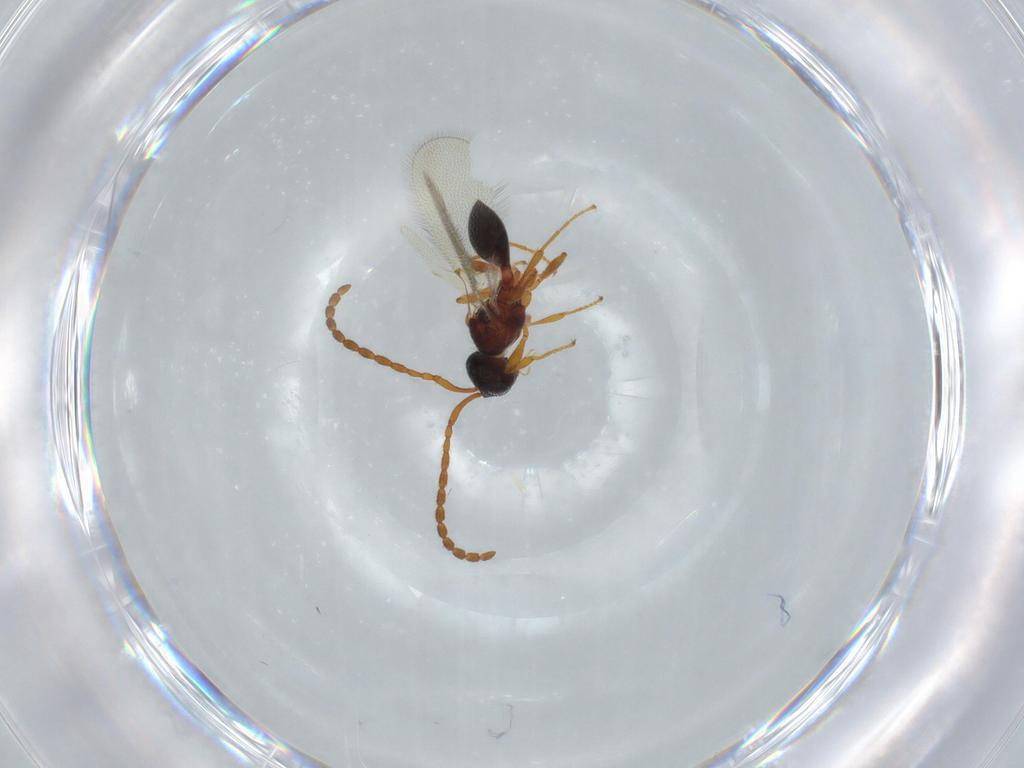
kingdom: Animalia
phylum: Arthropoda
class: Insecta
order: Hymenoptera
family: Diapriidae
